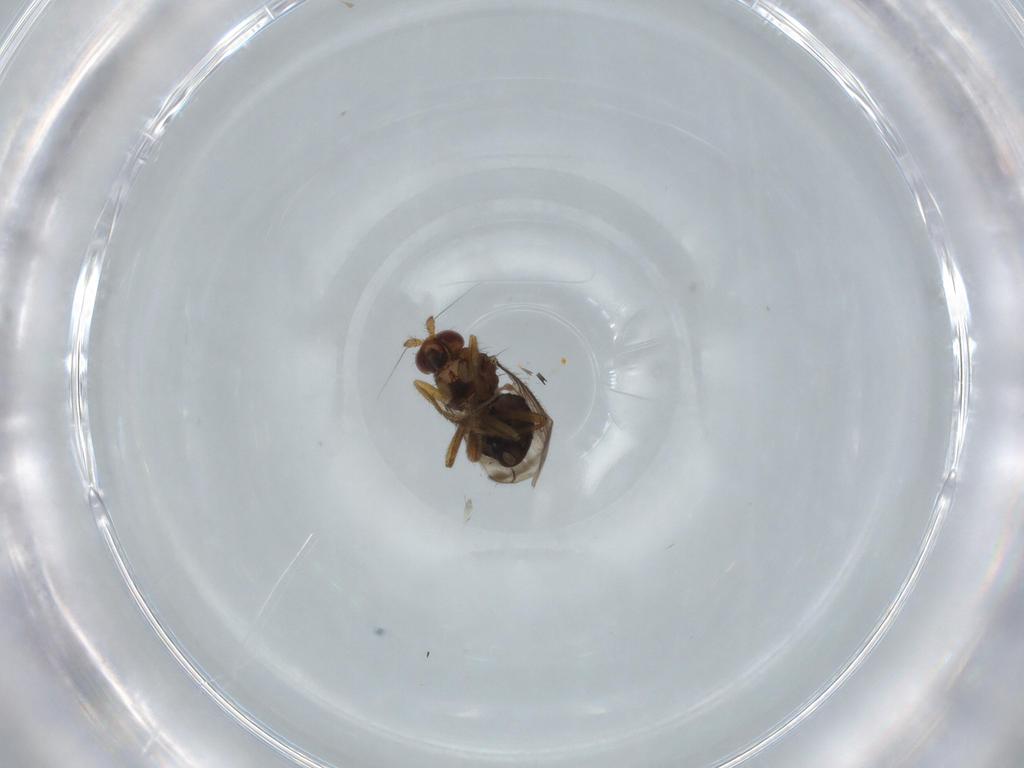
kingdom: Animalia
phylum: Arthropoda
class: Insecta
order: Diptera
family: Sphaeroceridae
